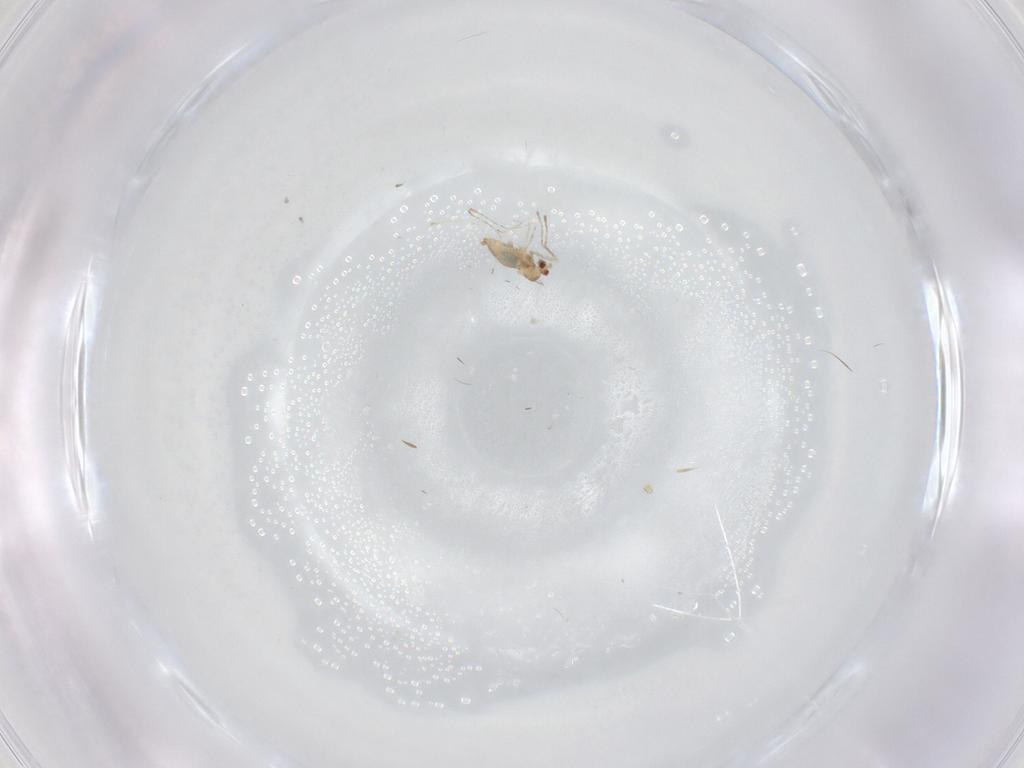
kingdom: Animalia
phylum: Arthropoda
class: Insecta
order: Diptera
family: Cecidomyiidae
